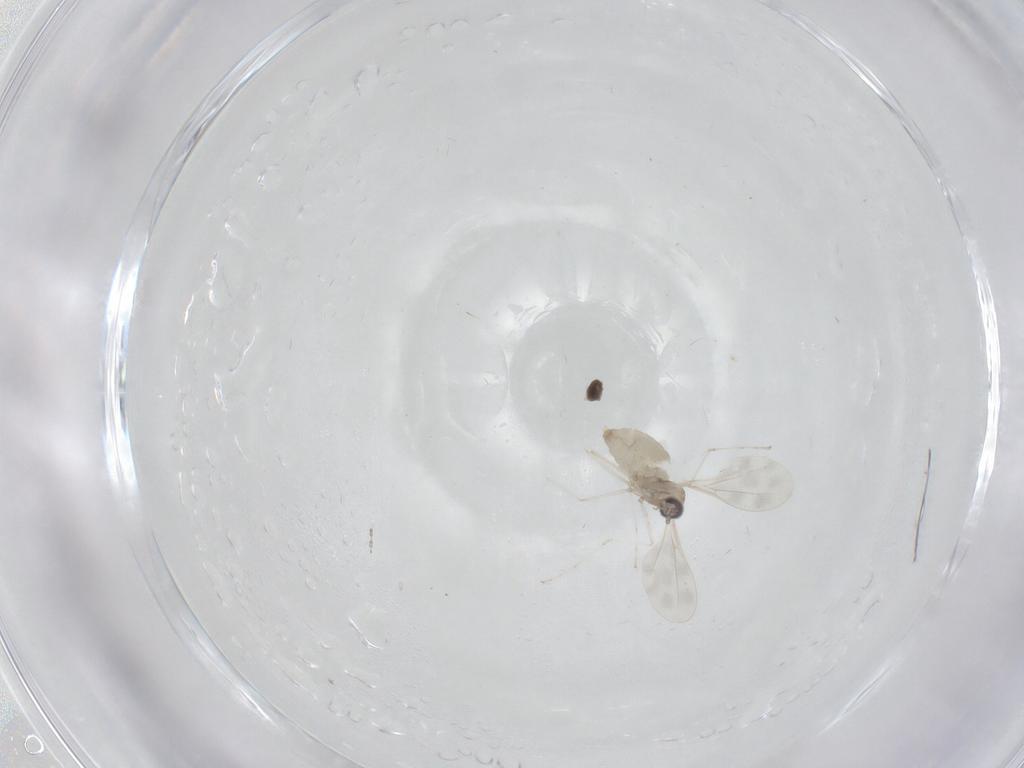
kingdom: Animalia
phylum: Arthropoda
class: Insecta
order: Diptera
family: Cecidomyiidae
